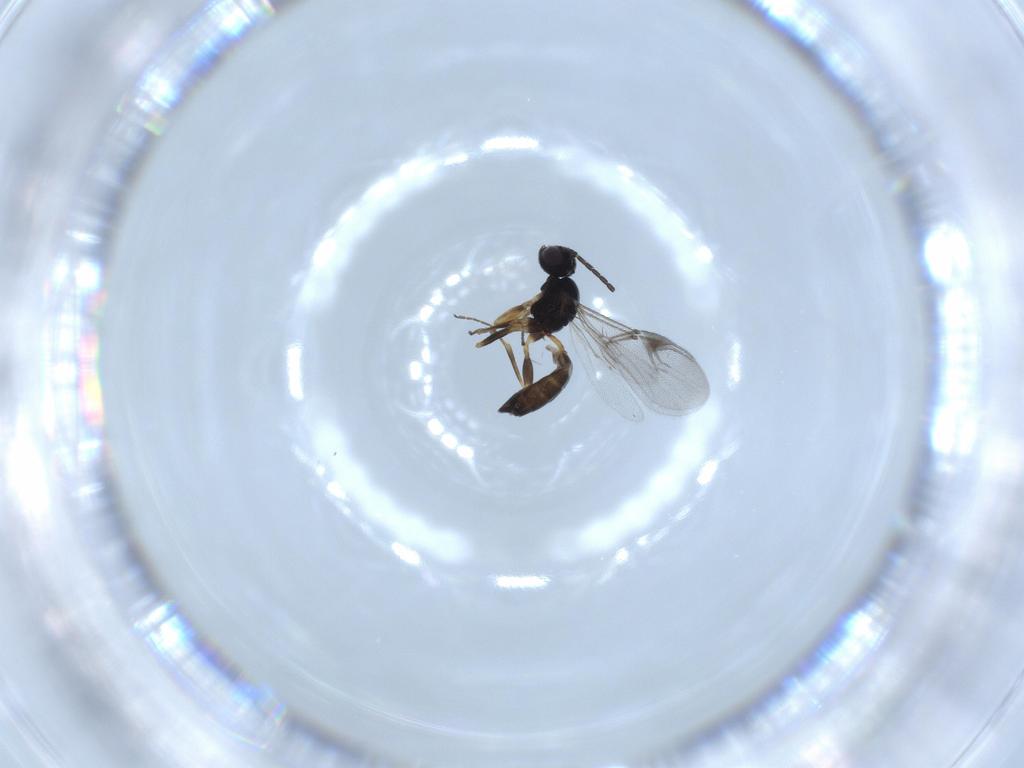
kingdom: Animalia
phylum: Arthropoda
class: Insecta
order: Hymenoptera
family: Braconidae
